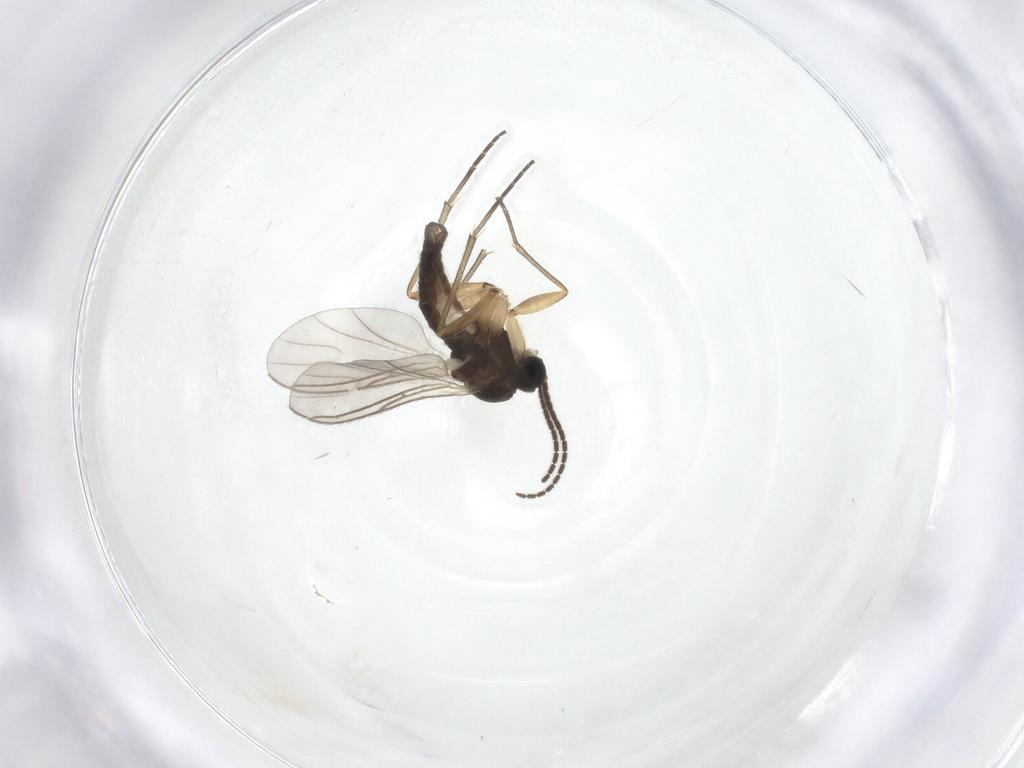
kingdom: Animalia
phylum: Arthropoda
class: Insecta
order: Diptera
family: Sciaridae
